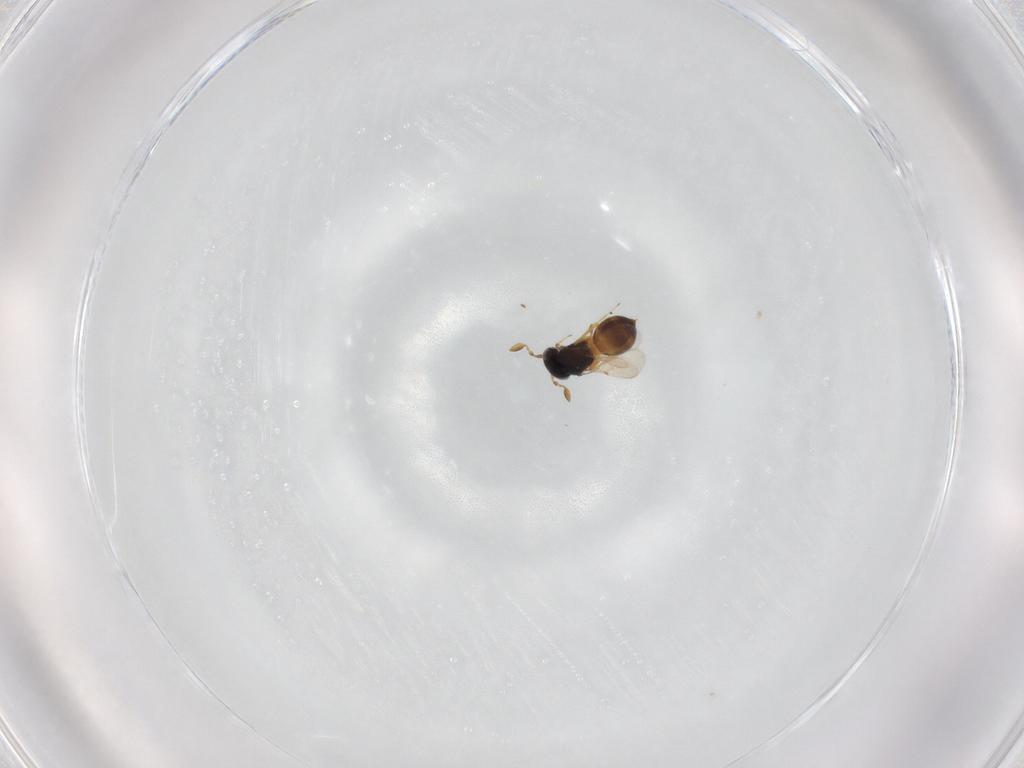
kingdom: Animalia
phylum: Arthropoda
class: Insecta
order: Hymenoptera
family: Scelionidae
